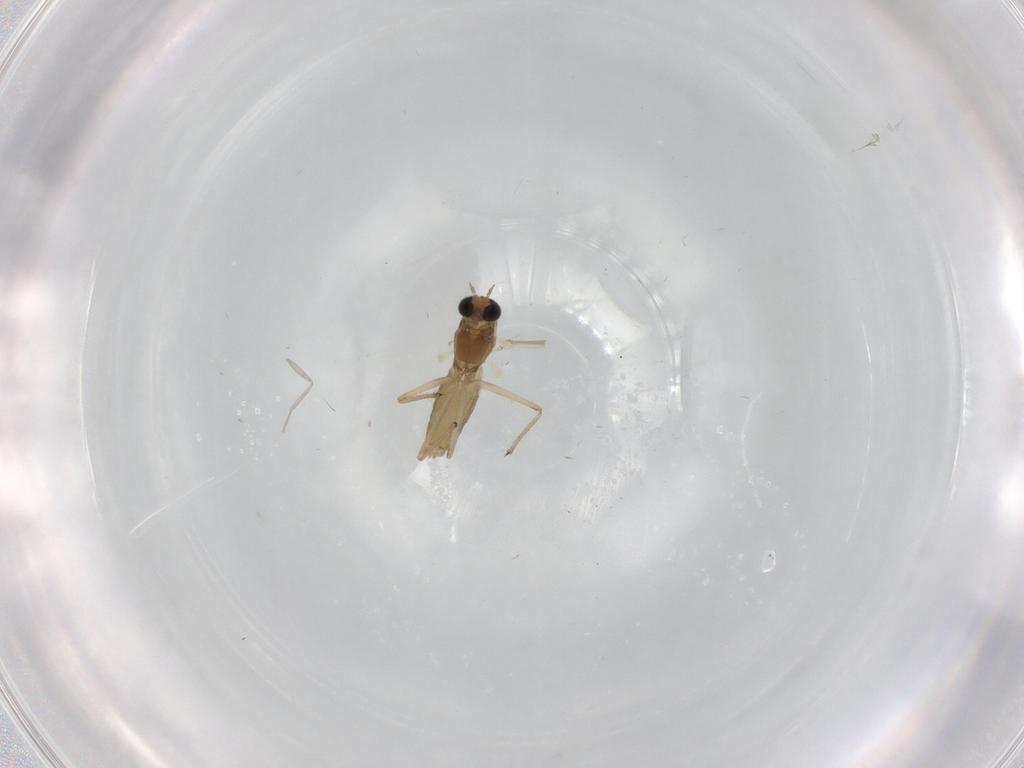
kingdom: Animalia
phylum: Arthropoda
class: Insecta
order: Diptera
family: Chironomidae
